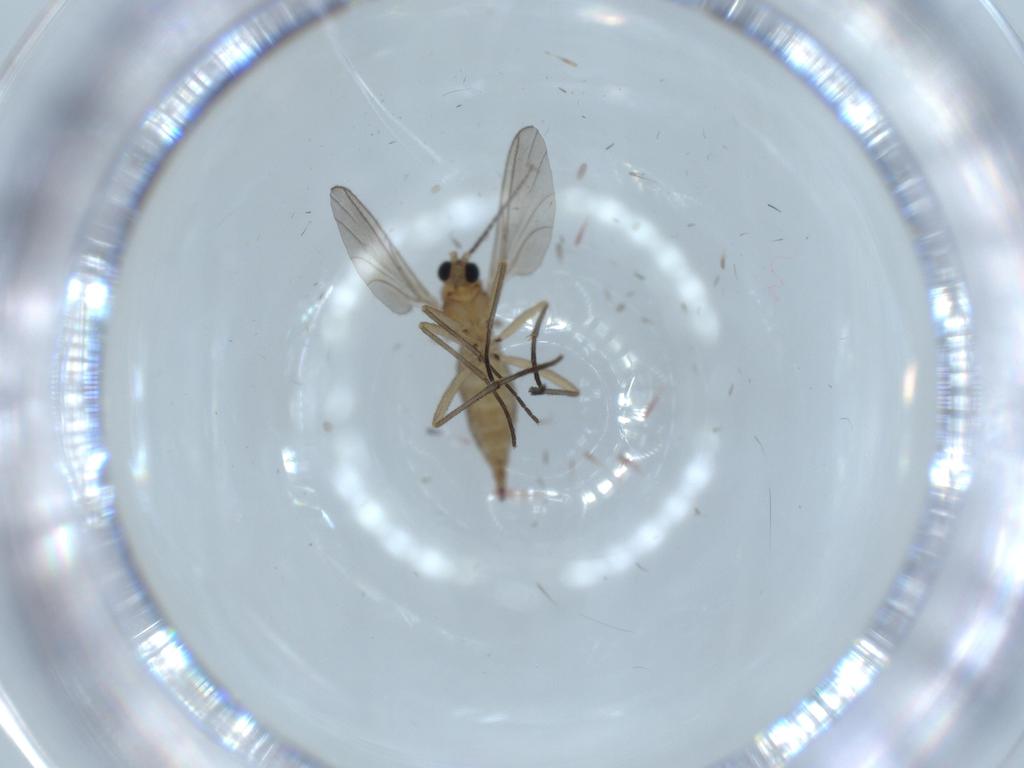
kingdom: Animalia
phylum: Arthropoda
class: Insecta
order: Diptera
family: Sciaridae
